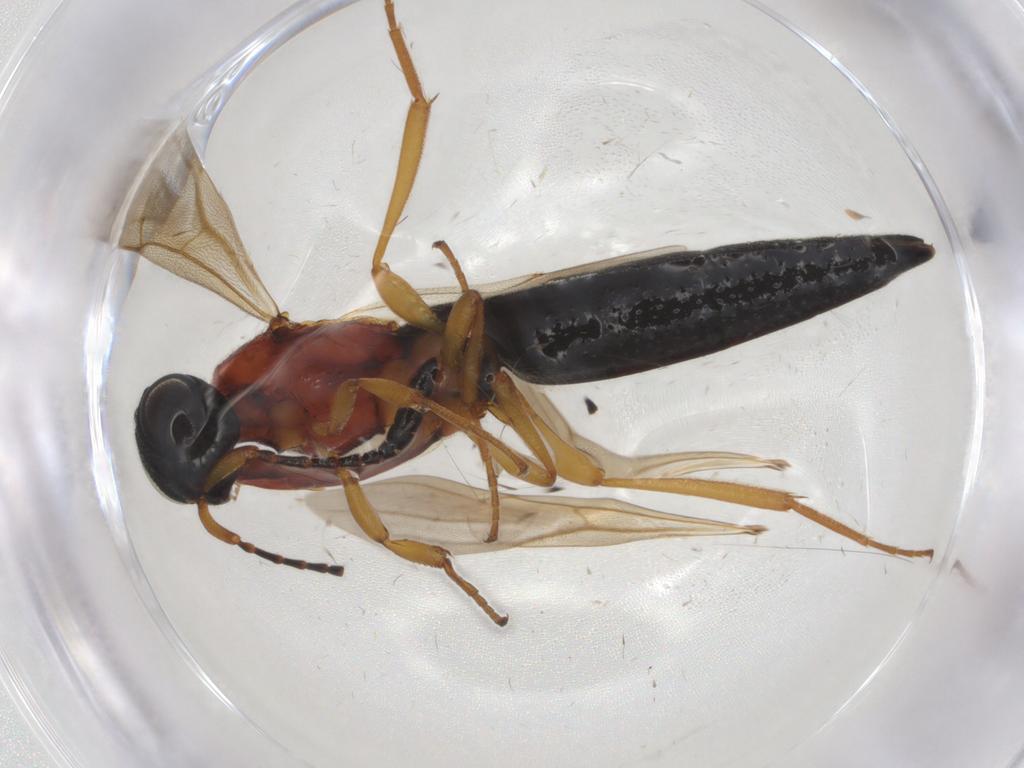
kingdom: Animalia
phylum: Arthropoda
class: Insecta
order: Hymenoptera
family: Scelionidae
